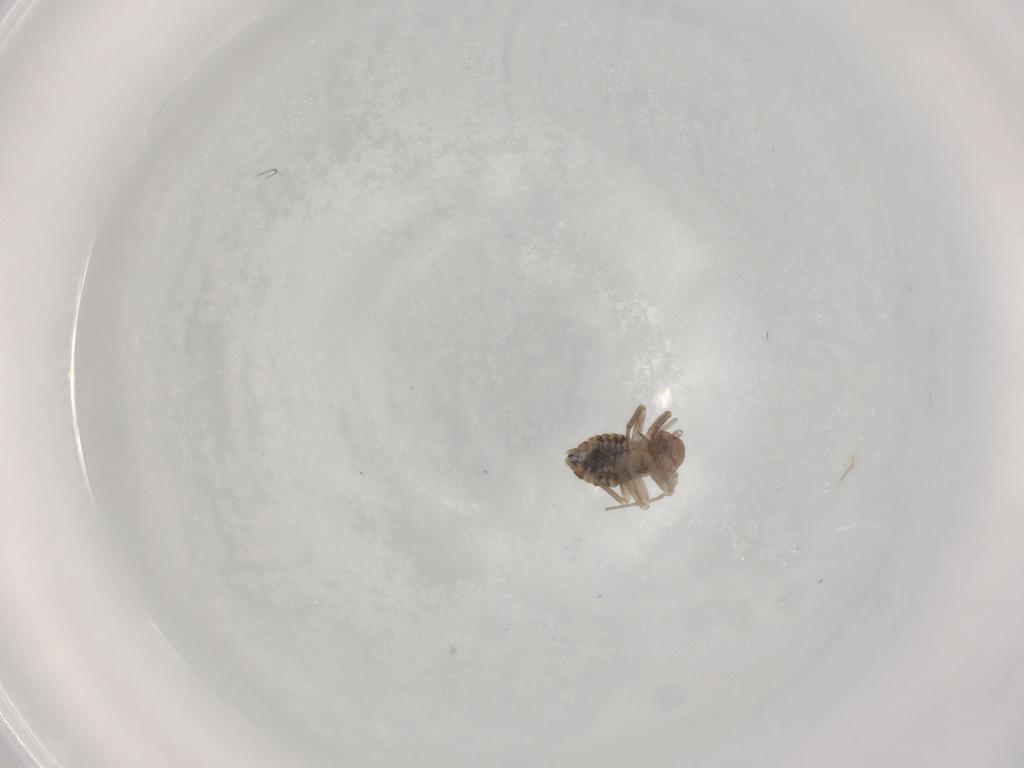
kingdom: Animalia
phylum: Arthropoda
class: Insecta
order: Psocodea
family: Psocidae
